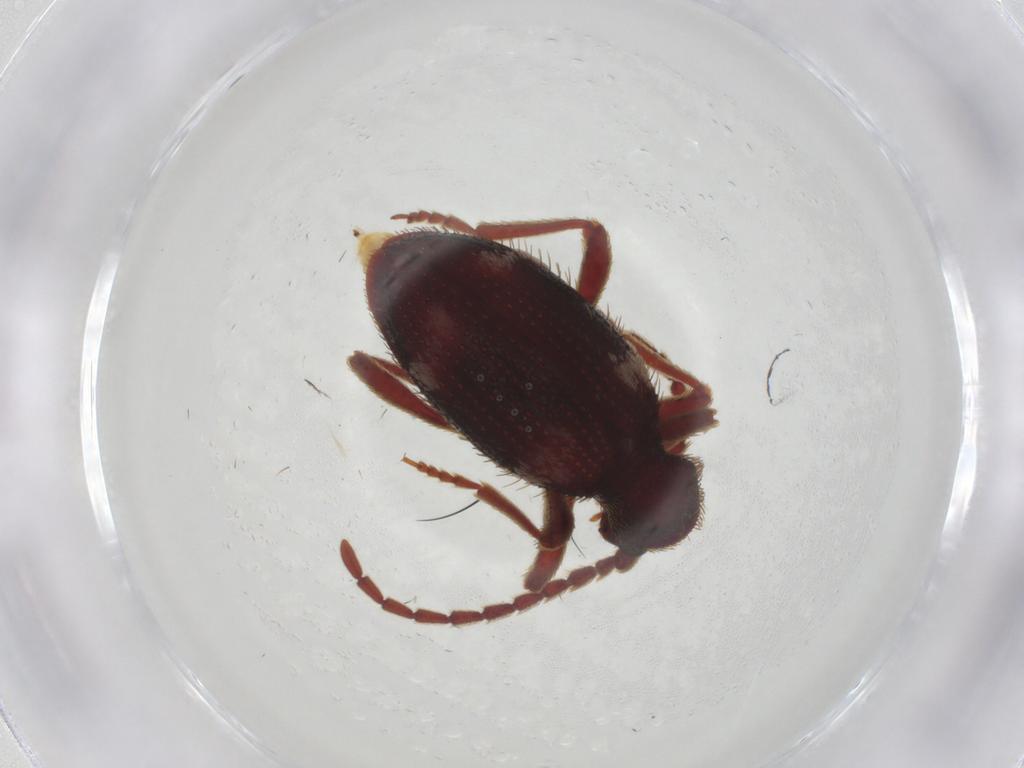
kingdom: Animalia
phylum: Arthropoda
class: Insecta
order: Coleoptera
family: Ptinidae
